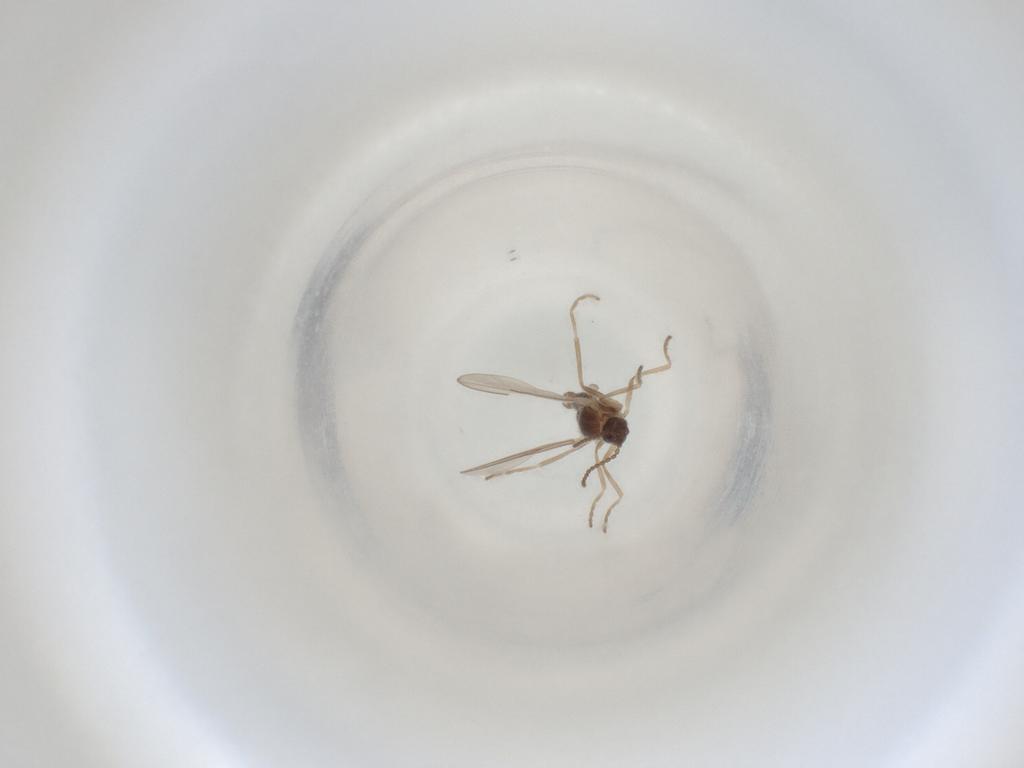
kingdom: Animalia
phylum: Arthropoda
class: Insecta
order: Diptera
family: Cecidomyiidae
